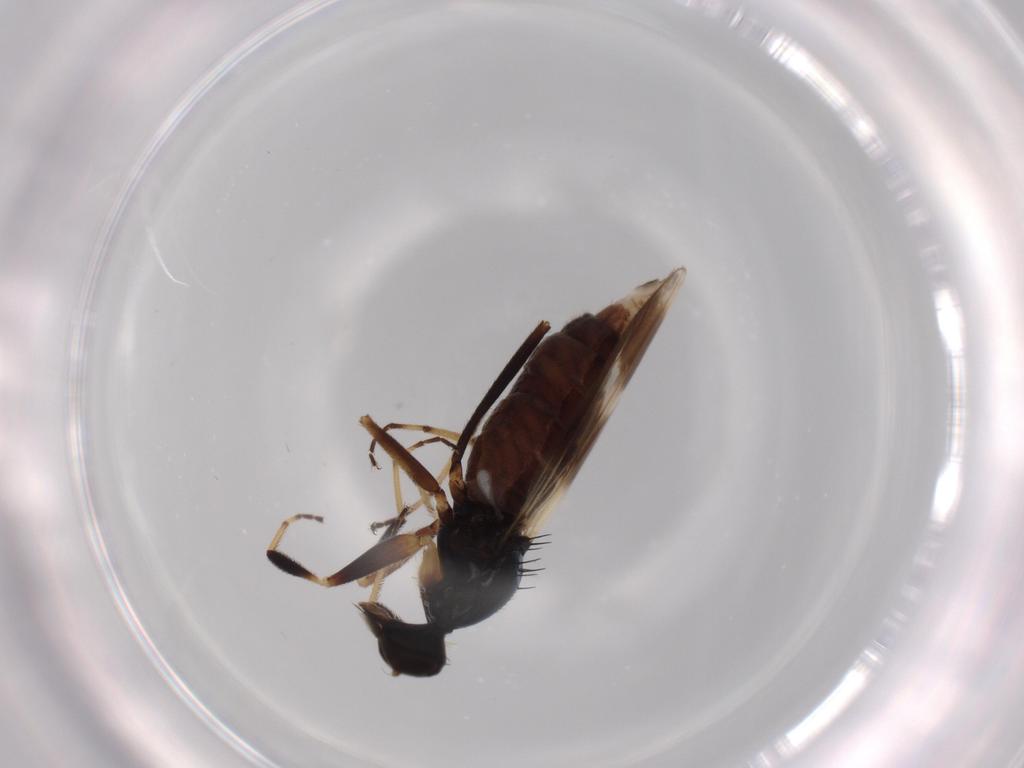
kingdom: Animalia
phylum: Arthropoda
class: Insecta
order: Diptera
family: Hybotidae
